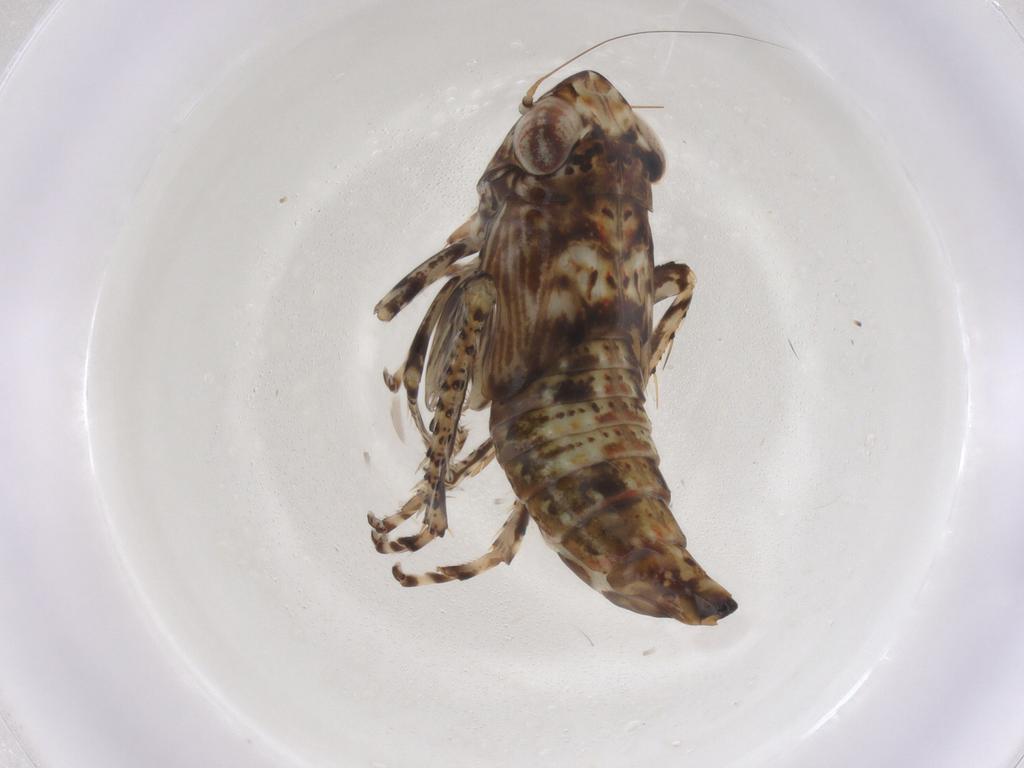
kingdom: Animalia
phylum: Arthropoda
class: Insecta
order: Hemiptera
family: Cicadellidae
